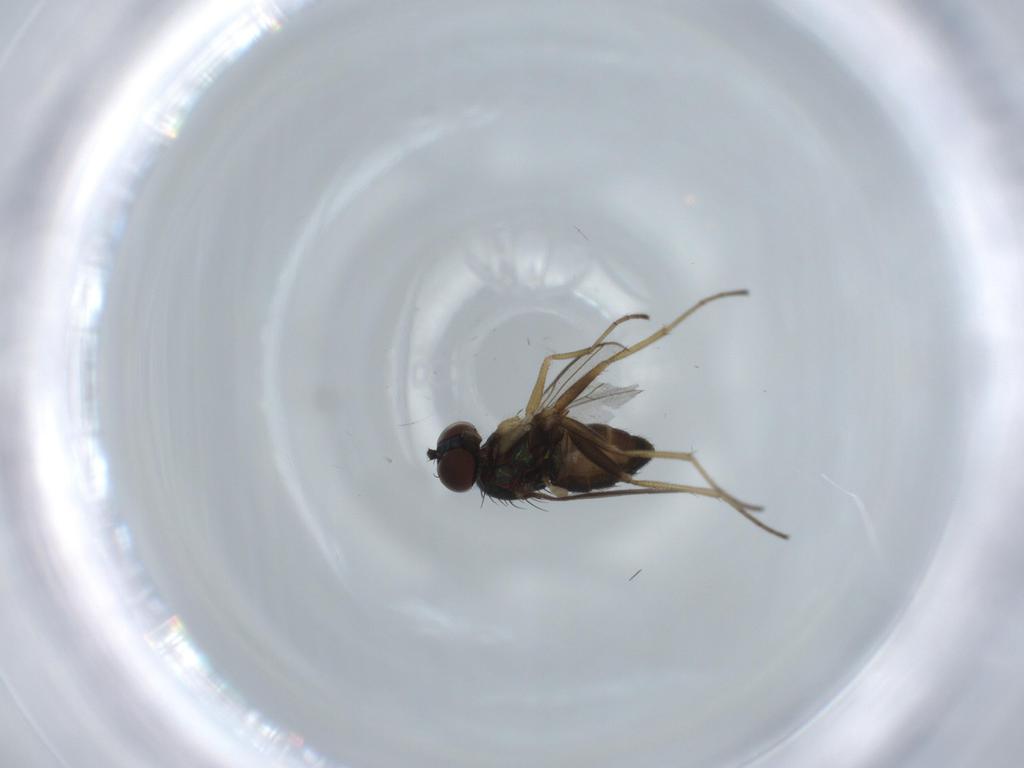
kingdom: Animalia
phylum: Arthropoda
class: Insecta
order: Diptera
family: Dolichopodidae
